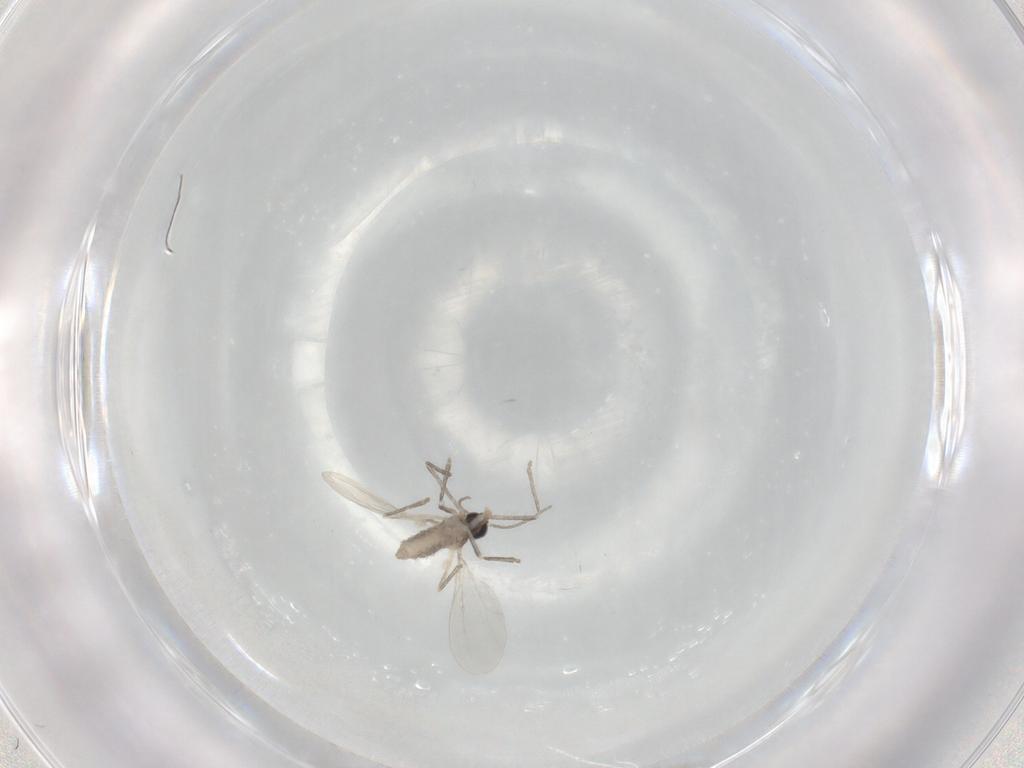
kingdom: Animalia
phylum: Arthropoda
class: Insecta
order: Diptera
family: Cecidomyiidae
